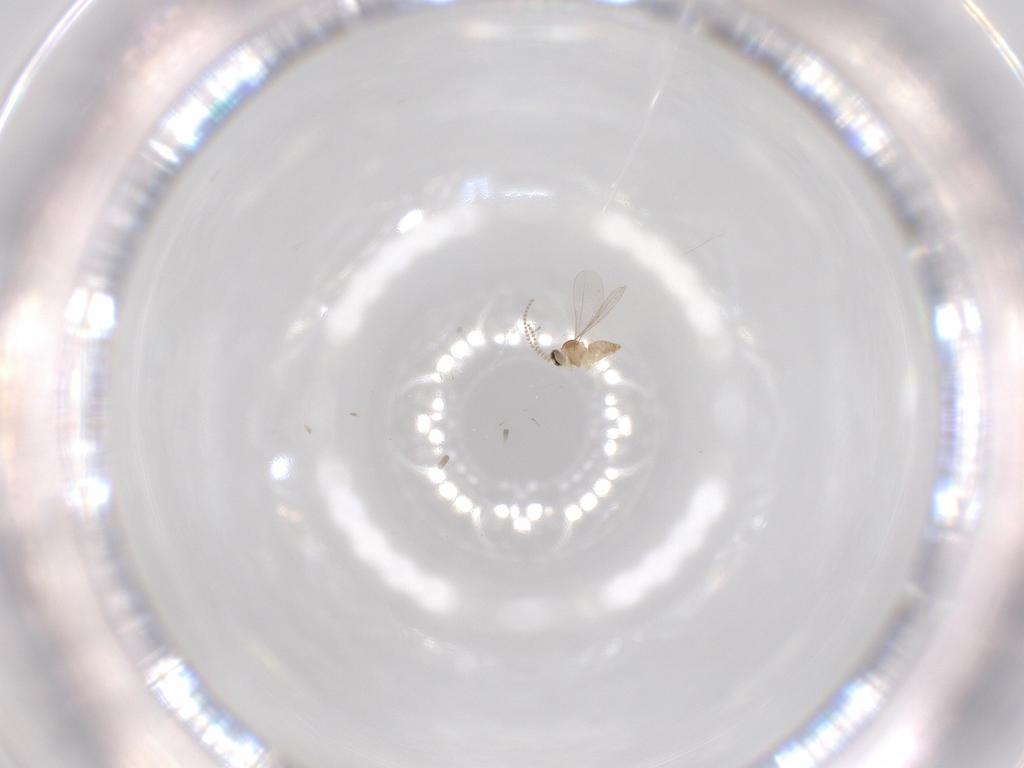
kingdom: Animalia
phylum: Arthropoda
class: Insecta
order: Diptera
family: Cecidomyiidae
